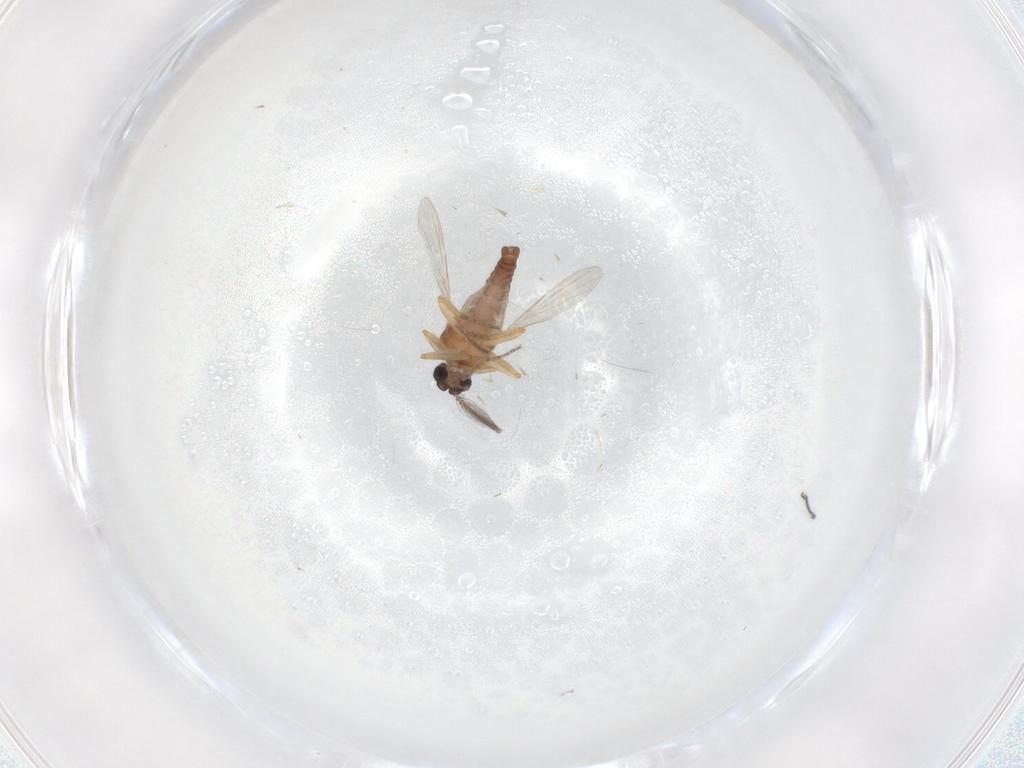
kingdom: Animalia
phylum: Arthropoda
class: Insecta
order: Diptera
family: Ceratopogonidae
